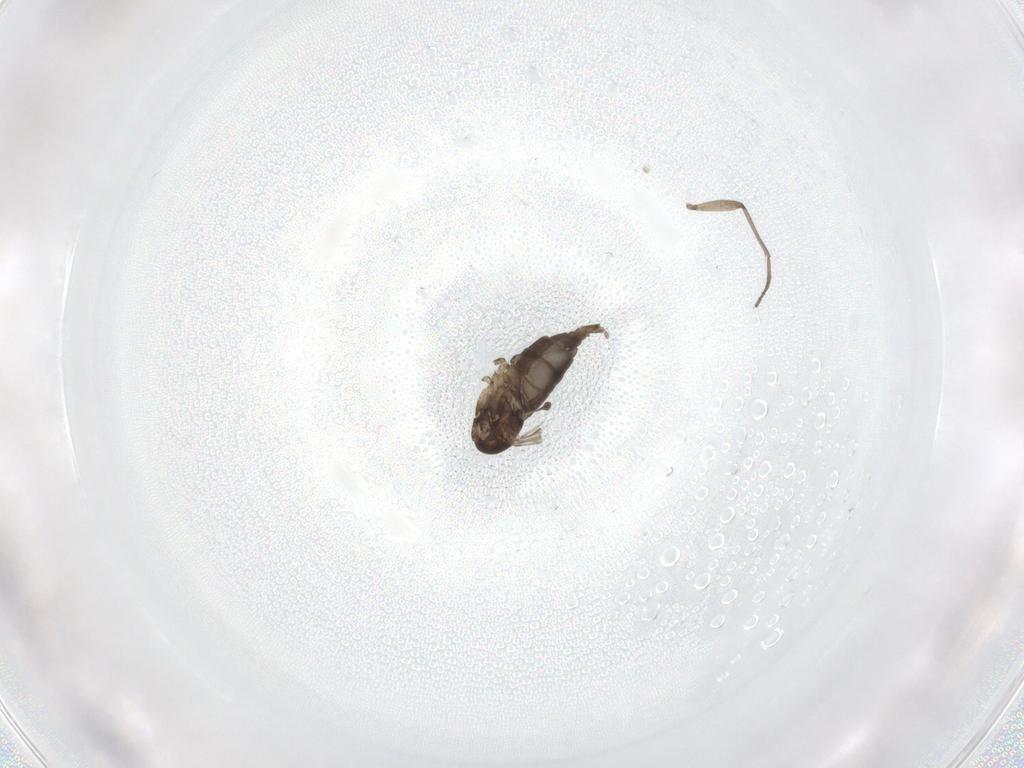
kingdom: Animalia
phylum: Arthropoda
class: Insecta
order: Diptera
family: Sciaridae
